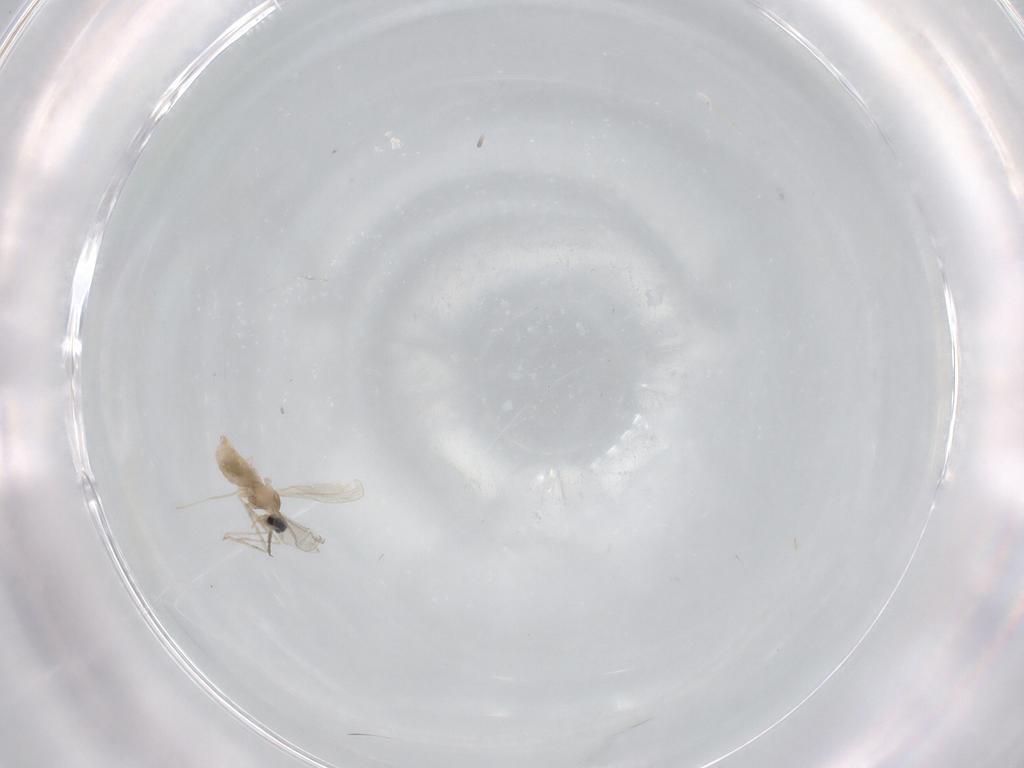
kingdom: Animalia
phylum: Arthropoda
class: Insecta
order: Diptera
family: Cecidomyiidae
